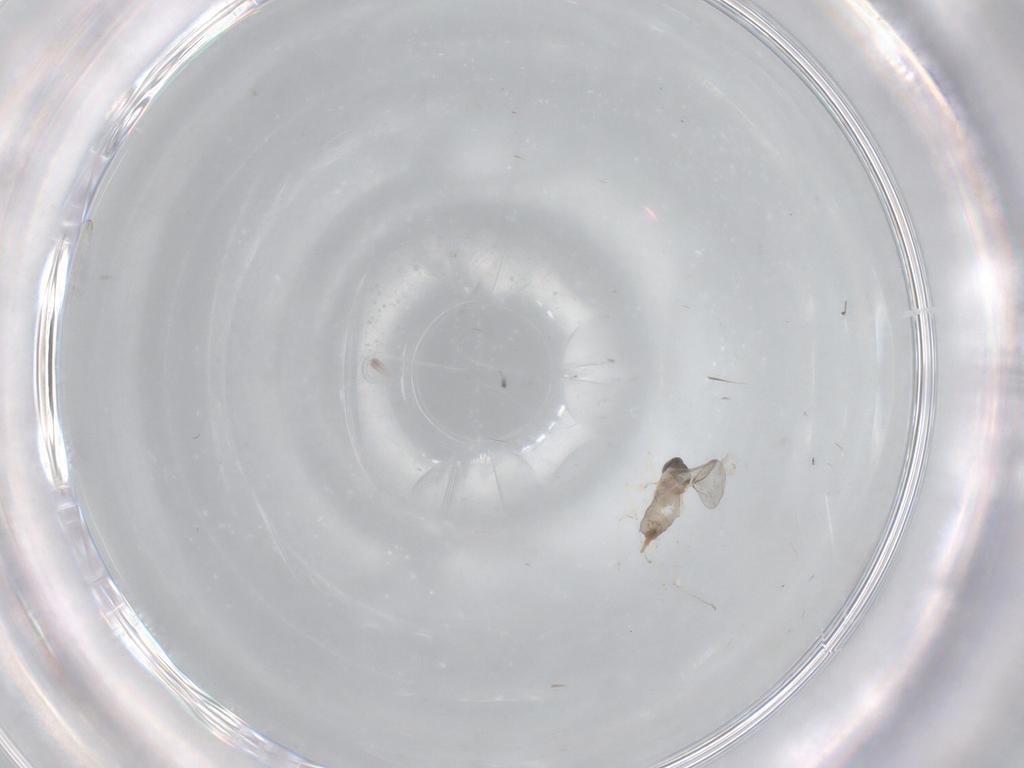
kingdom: Animalia
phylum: Arthropoda
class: Insecta
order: Diptera
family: Cecidomyiidae
